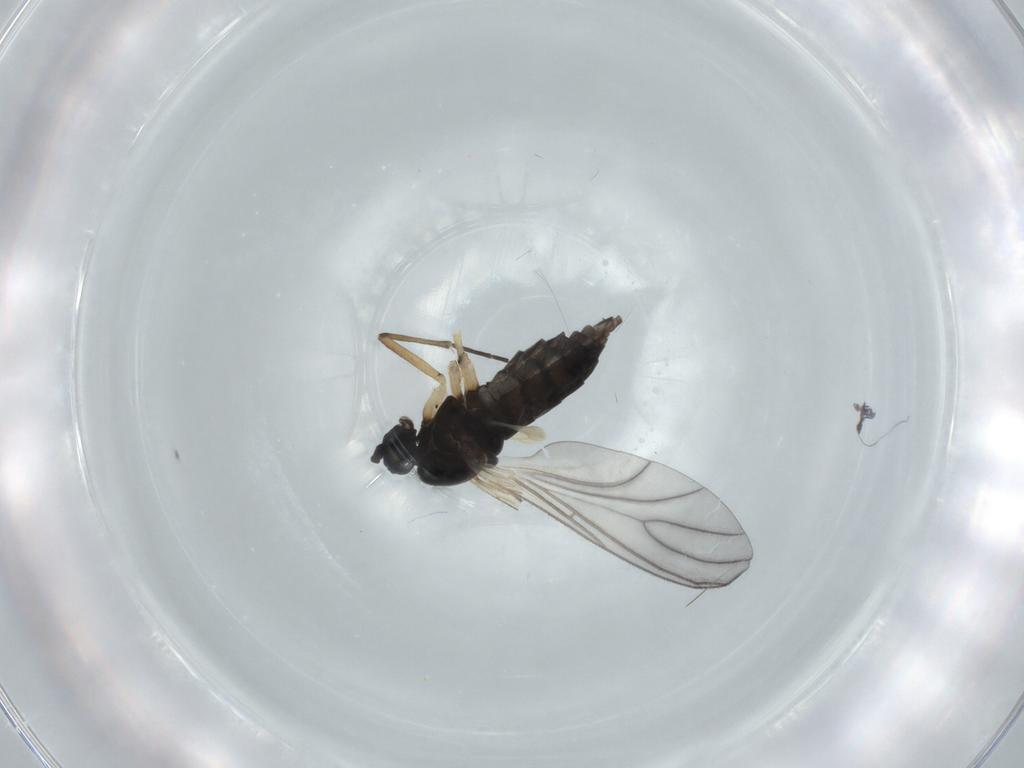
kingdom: Animalia
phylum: Arthropoda
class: Insecta
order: Diptera
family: Sciaridae
